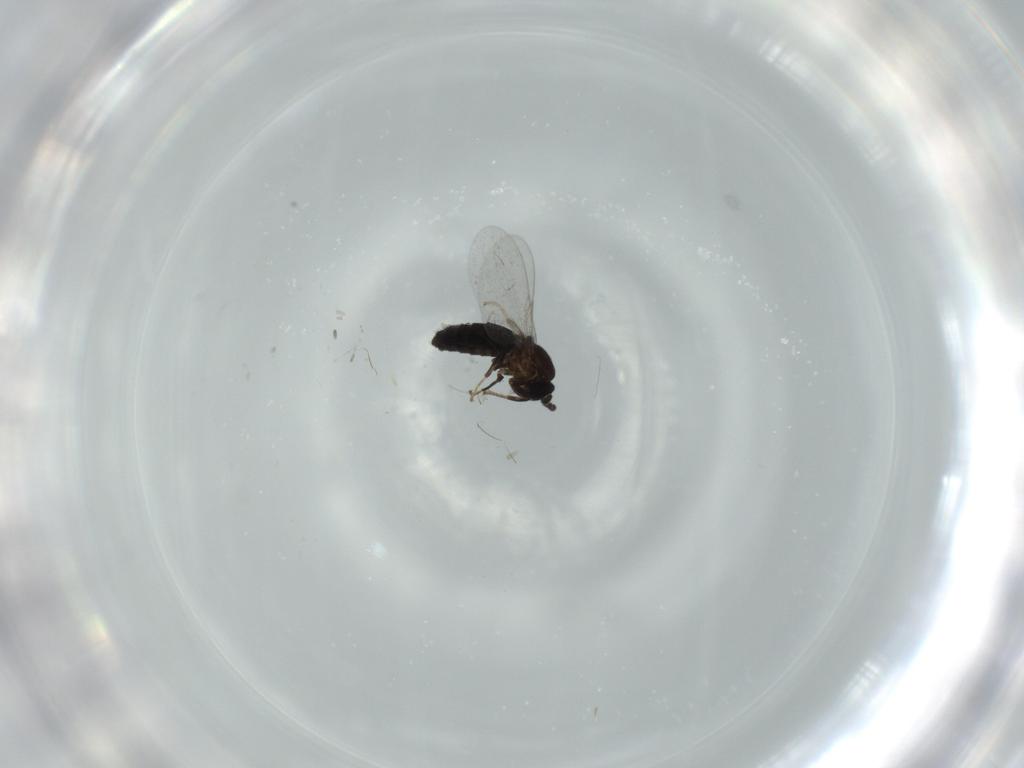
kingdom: Animalia
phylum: Arthropoda
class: Insecta
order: Diptera
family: Scatopsidae
